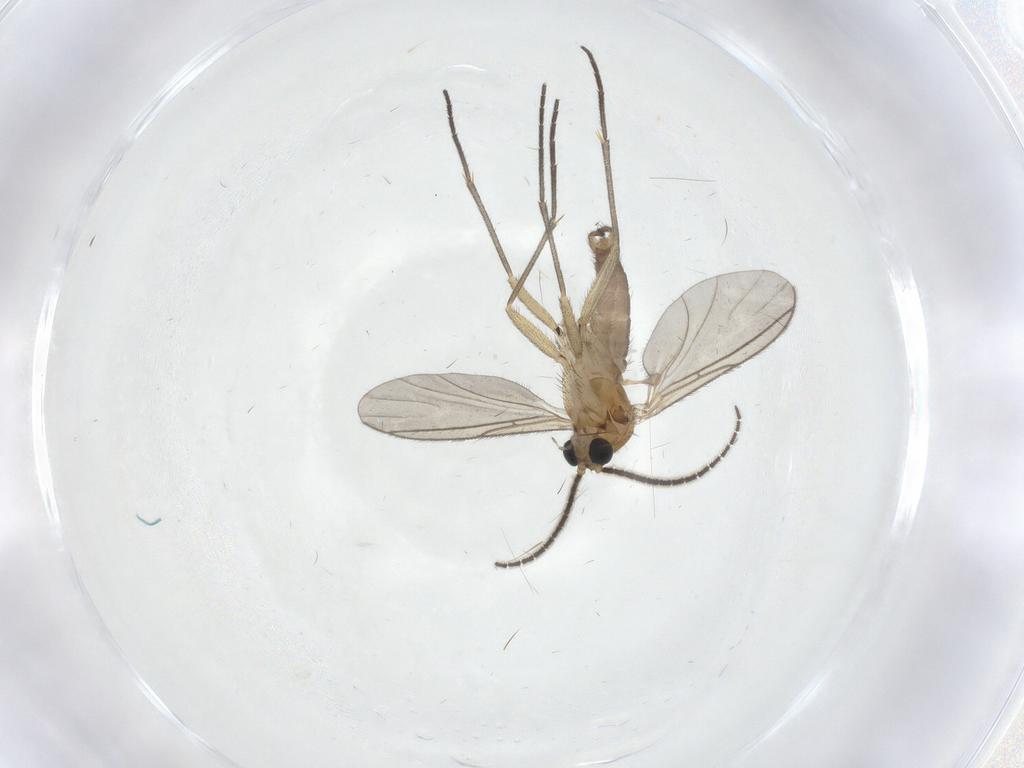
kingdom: Animalia
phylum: Arthropoda
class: Insecta
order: Diptera
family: Sciaridae
